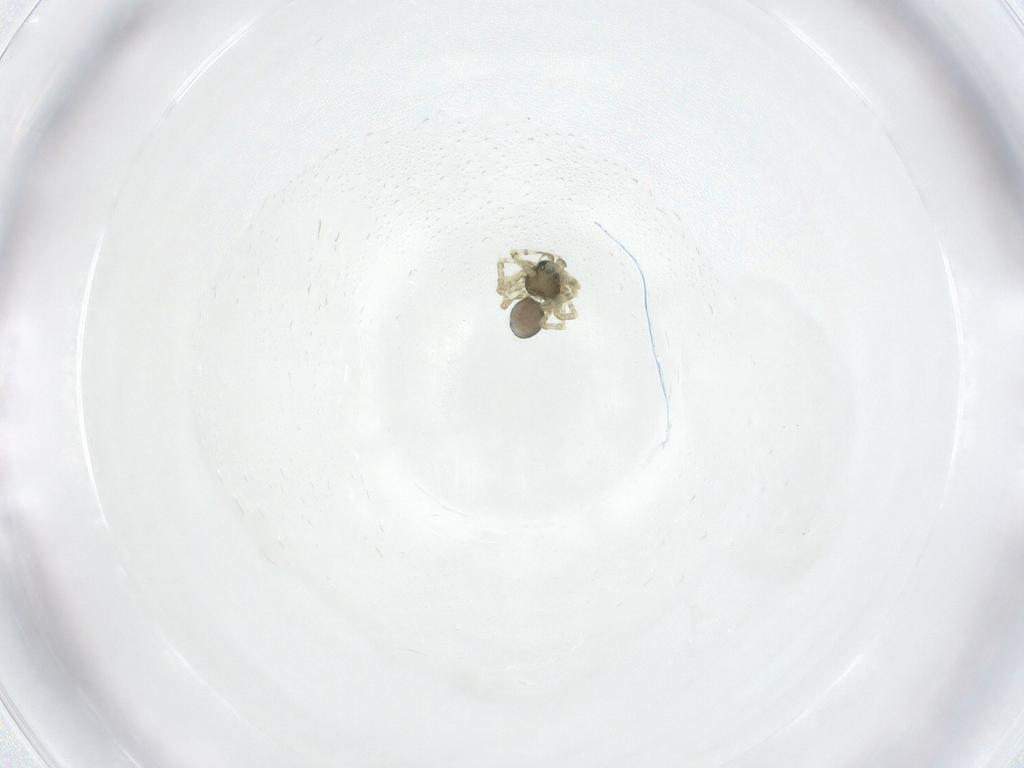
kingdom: Animalia
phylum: Arthropoda
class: Arachnida
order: Araneae
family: Linyphiidae
